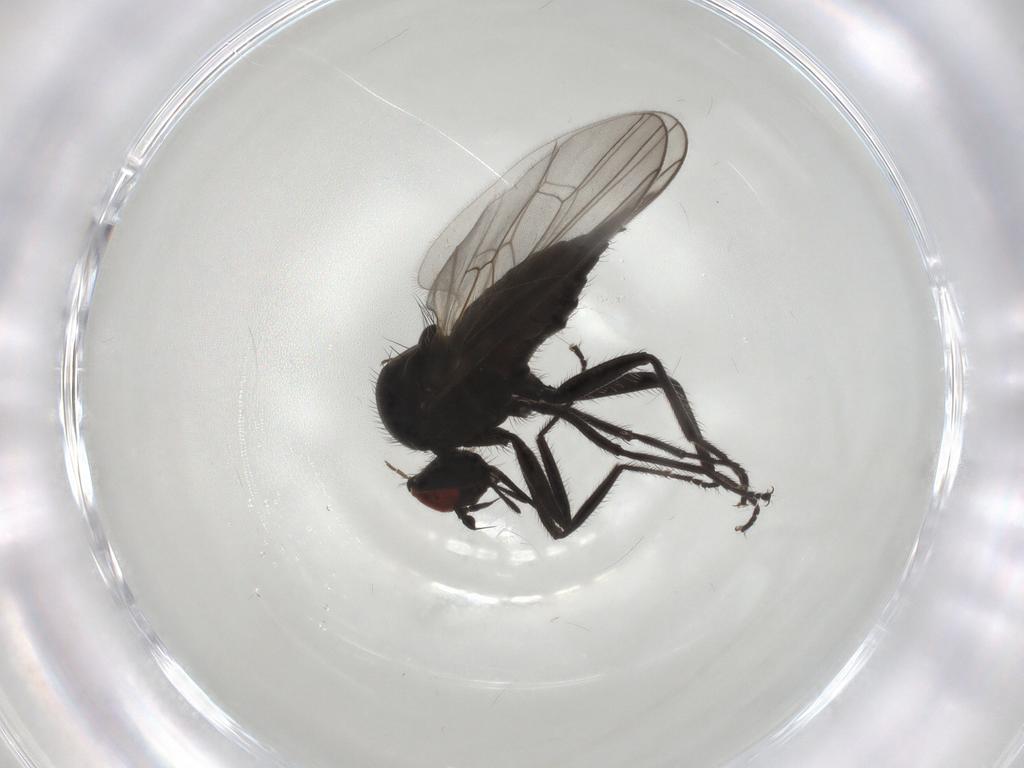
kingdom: Animalia
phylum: Arthropoda
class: Insecta
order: Diptera
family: Hybotidae
